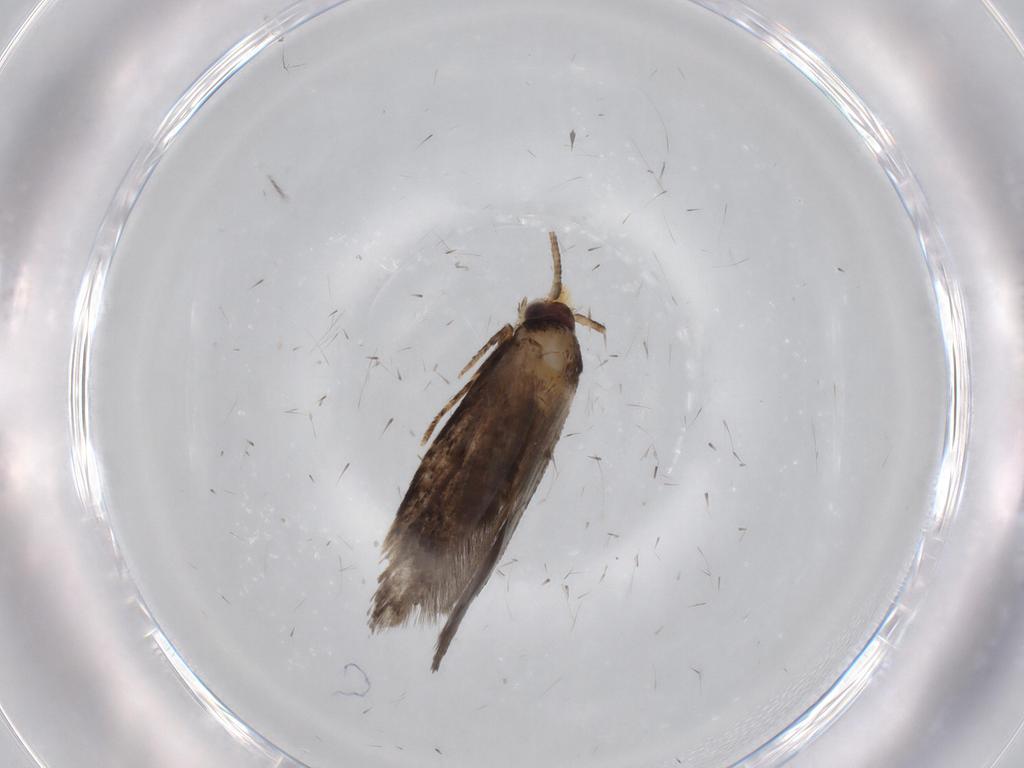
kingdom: Animalia
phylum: Arthropoda
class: Insecta
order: Lepidoptera
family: Tineidae
